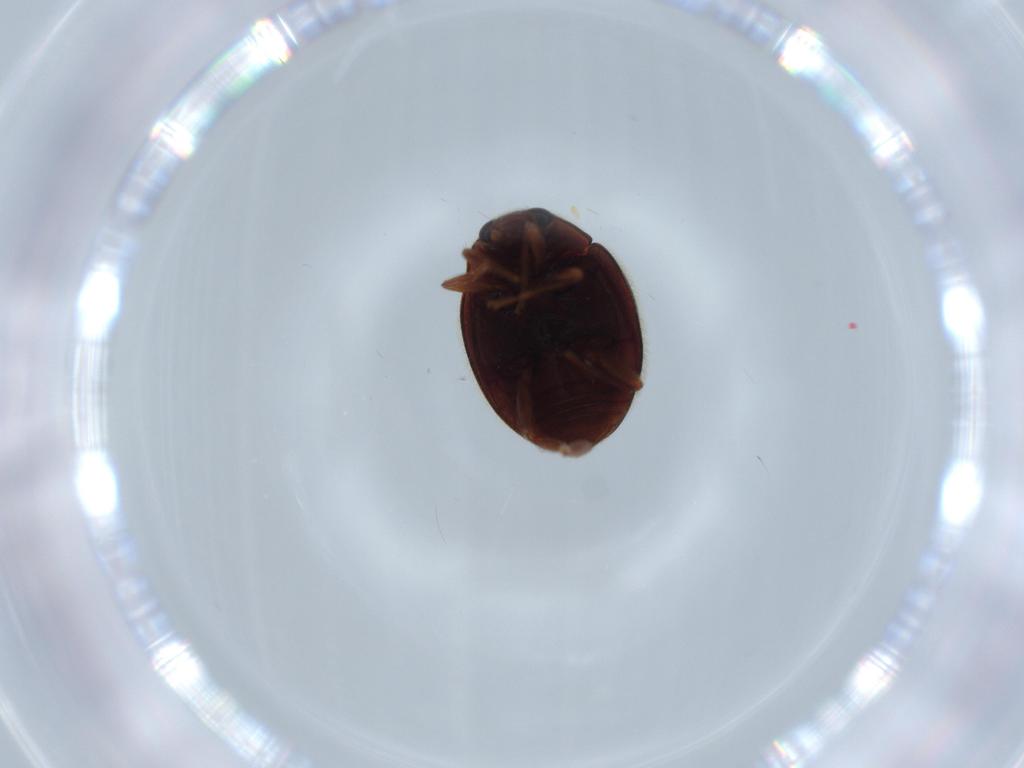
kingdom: Animalia
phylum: Arthropoda
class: Insecta
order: Coleoptera
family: Coccinellidae
